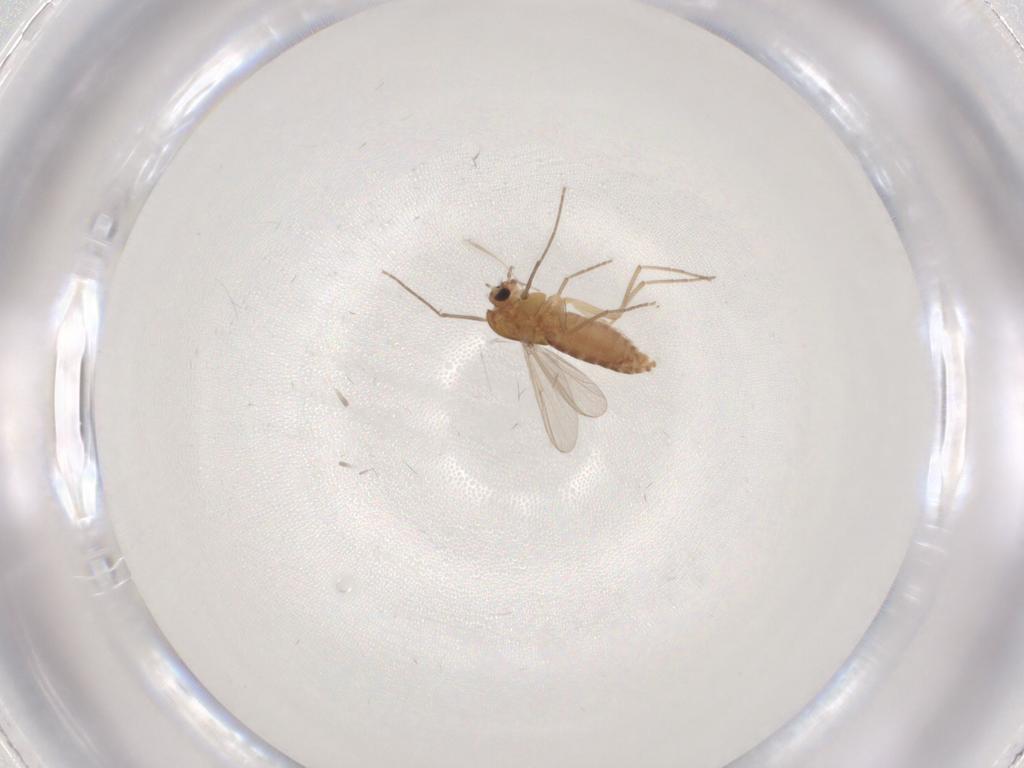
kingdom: Animalia
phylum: Arthropoda
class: Insecta
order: Diptera
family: Chironomidae
